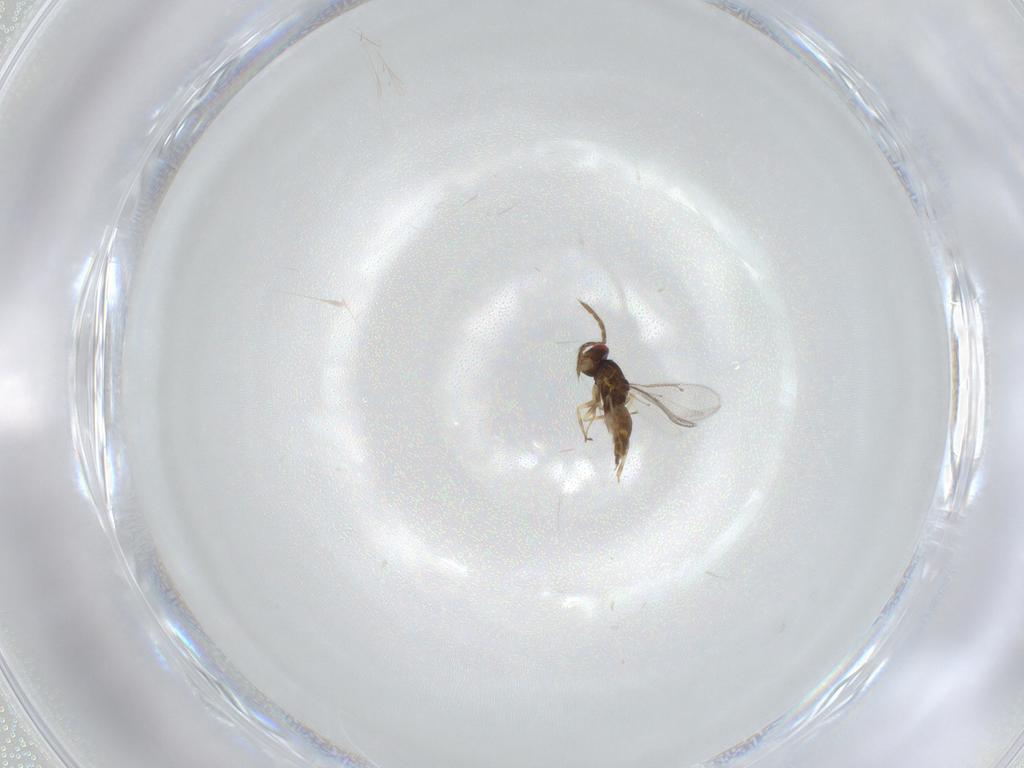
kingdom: Animalia
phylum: Arthropoda
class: Insecta
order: Hymenoptera
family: Eulophidae
